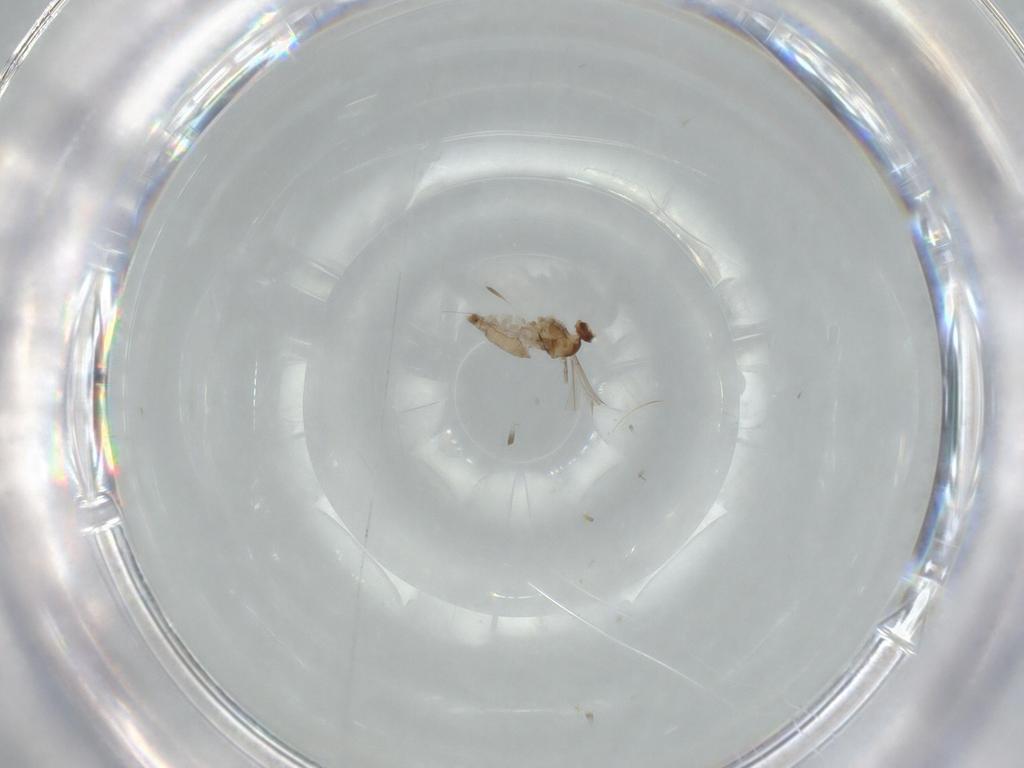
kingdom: Animalia
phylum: Arthropoda
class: Insecta
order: Diptera
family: Cecidomyiidae
